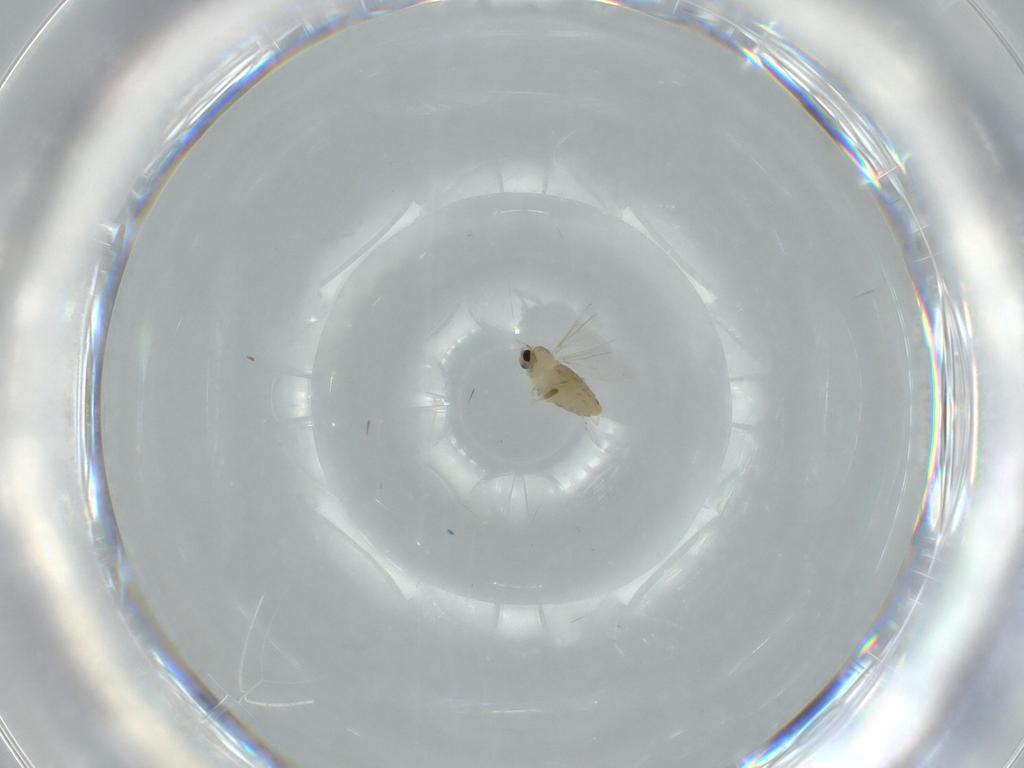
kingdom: Animalia
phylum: Arthropoda
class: Insecta
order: Diptera
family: Cecidomyiidae
